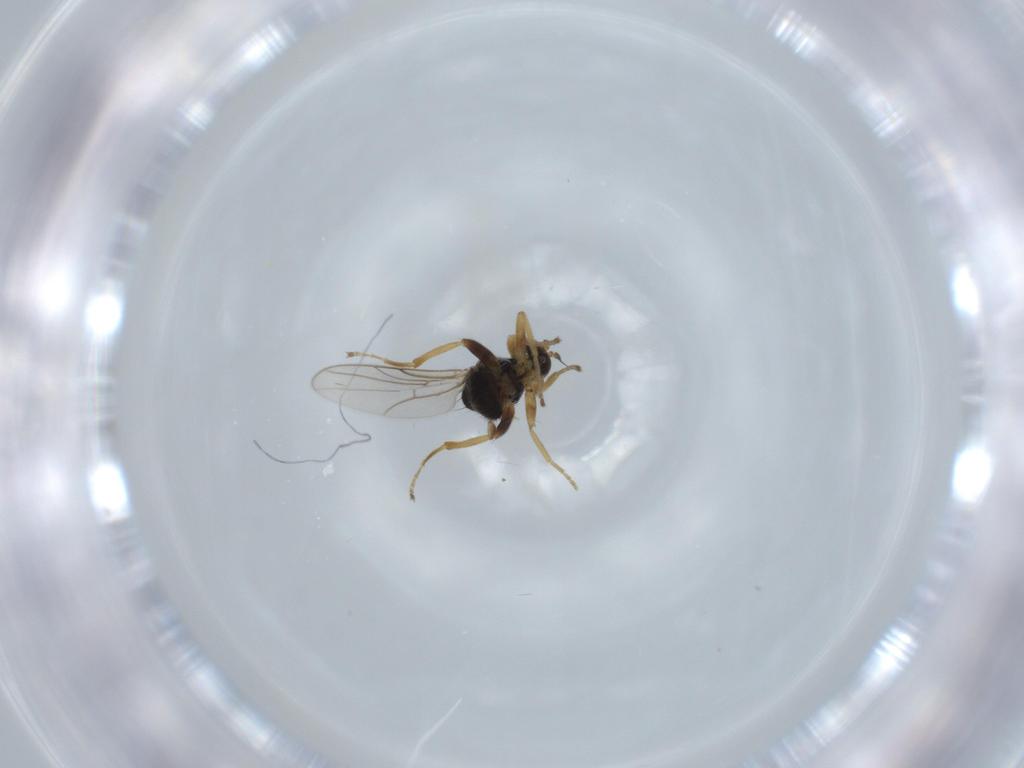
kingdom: Animalia
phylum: Arthropoda
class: Insecta
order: Diptera
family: Hybotidae
